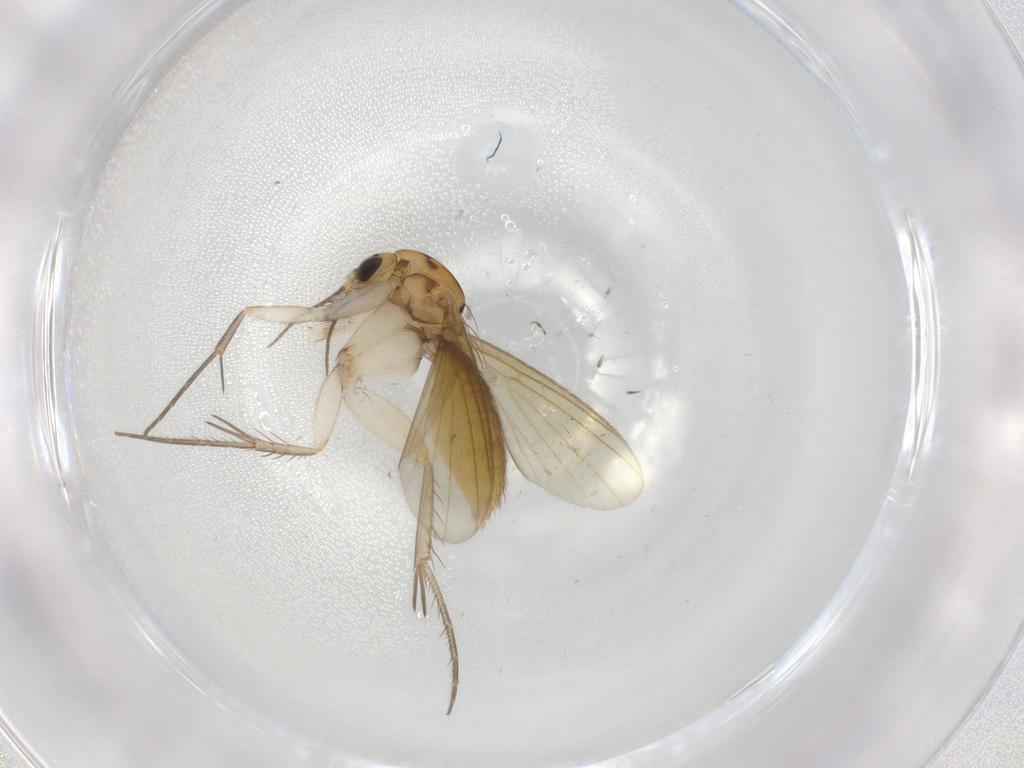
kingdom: Animalia
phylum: Arthropoda
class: Insecta
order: Diptera
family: Mycetophilidae
